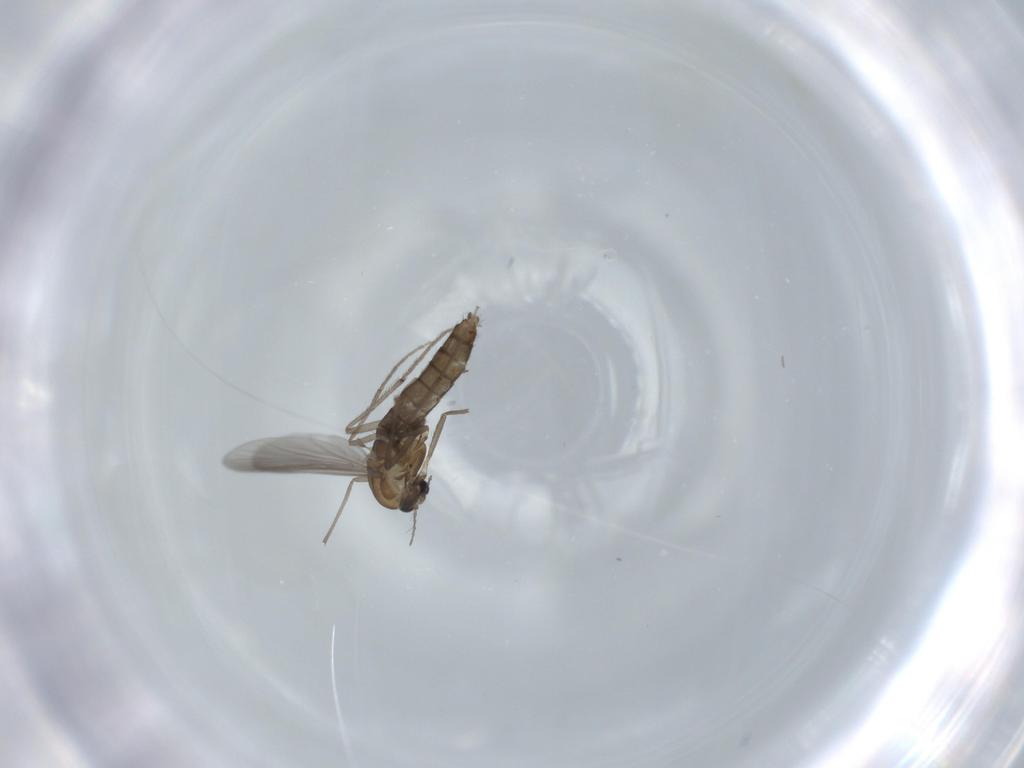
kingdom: Animalia
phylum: Arthropoda
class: Insecta
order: Diptera
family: Chironomidae
